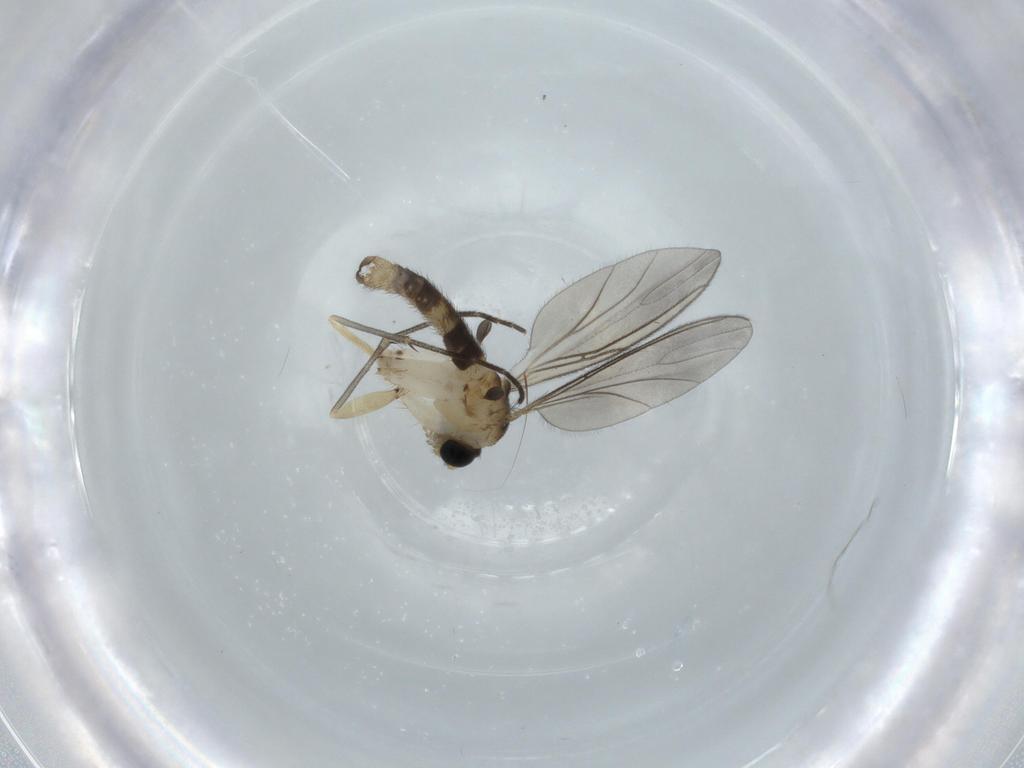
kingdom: Animalia
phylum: Arthropoda
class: Insecta
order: Diptera
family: Sciaridae
